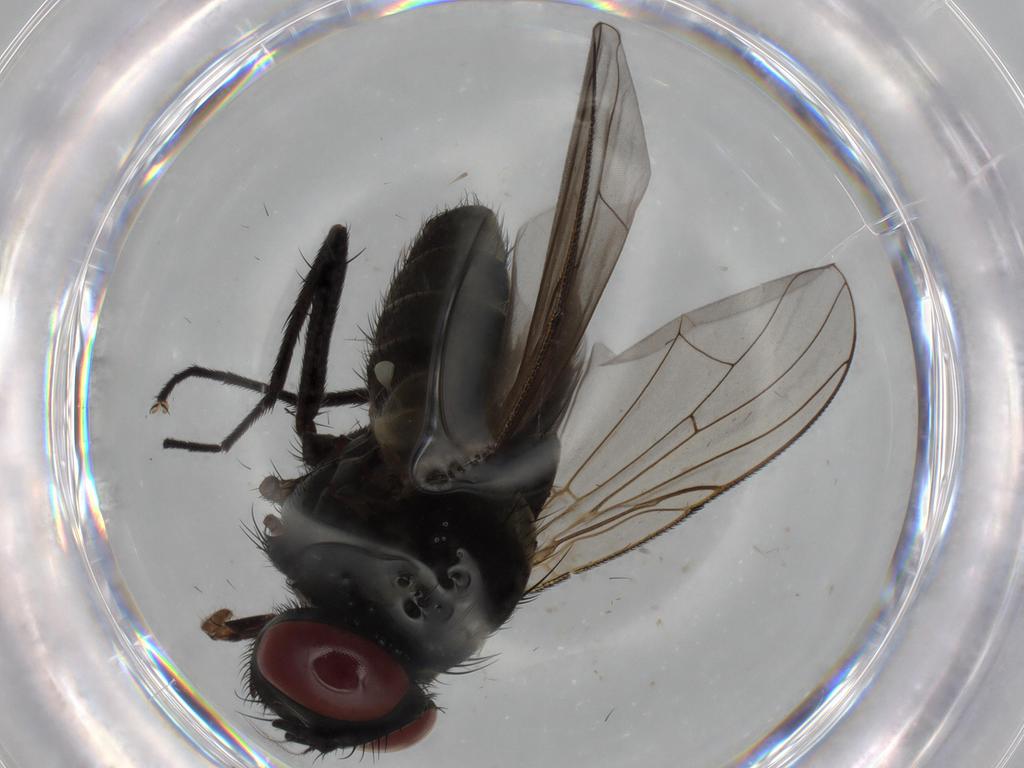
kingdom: Animalia
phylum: Arthropoda
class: Insecta
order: Diptera
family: Muscidae
